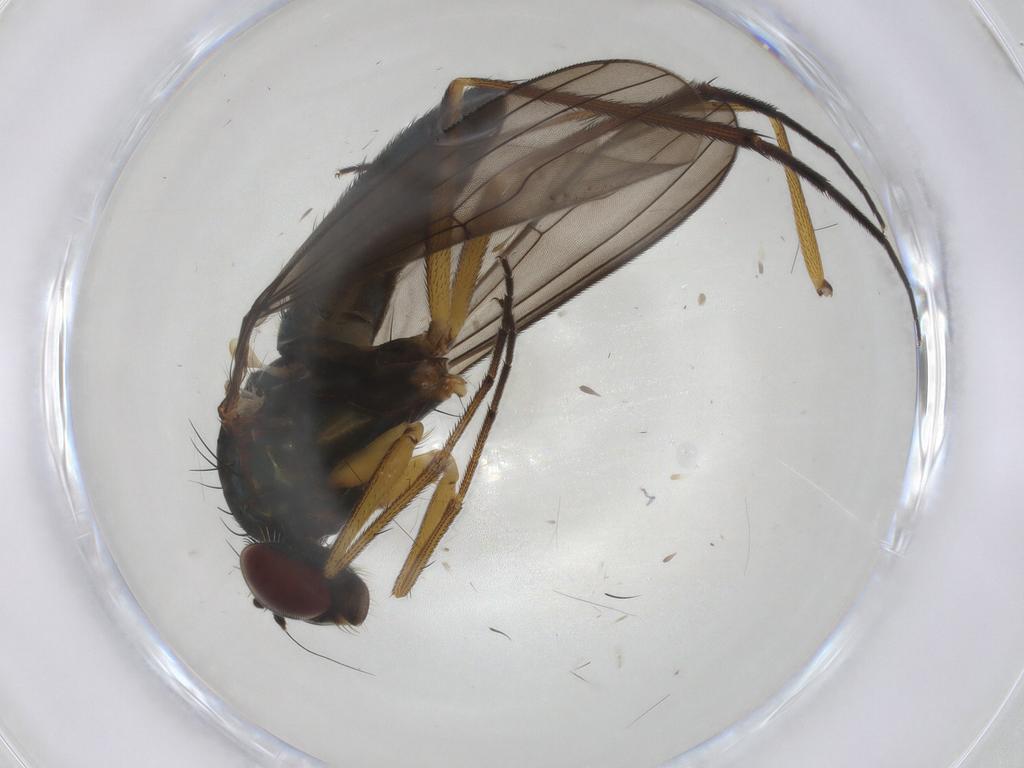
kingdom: Animalia
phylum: Arthropoda
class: Insecta
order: Diptera
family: Dolichopodidae
